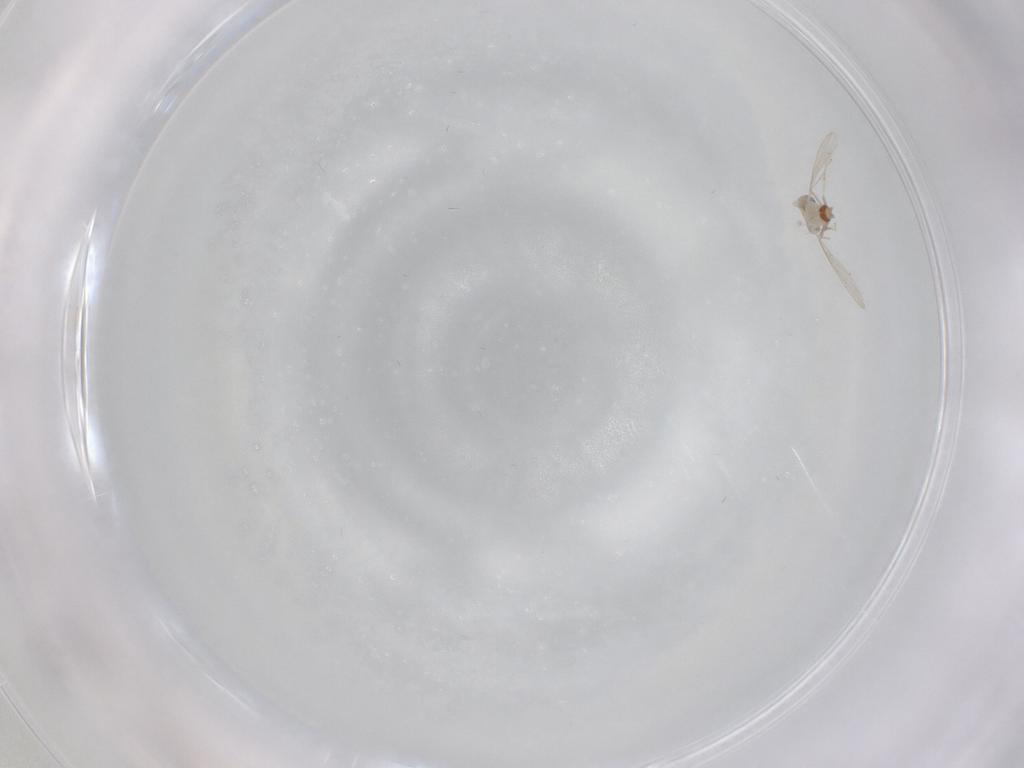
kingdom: Animalia
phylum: Arthropoda
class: Insecta
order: Diptera
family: Cecidomyiidae
